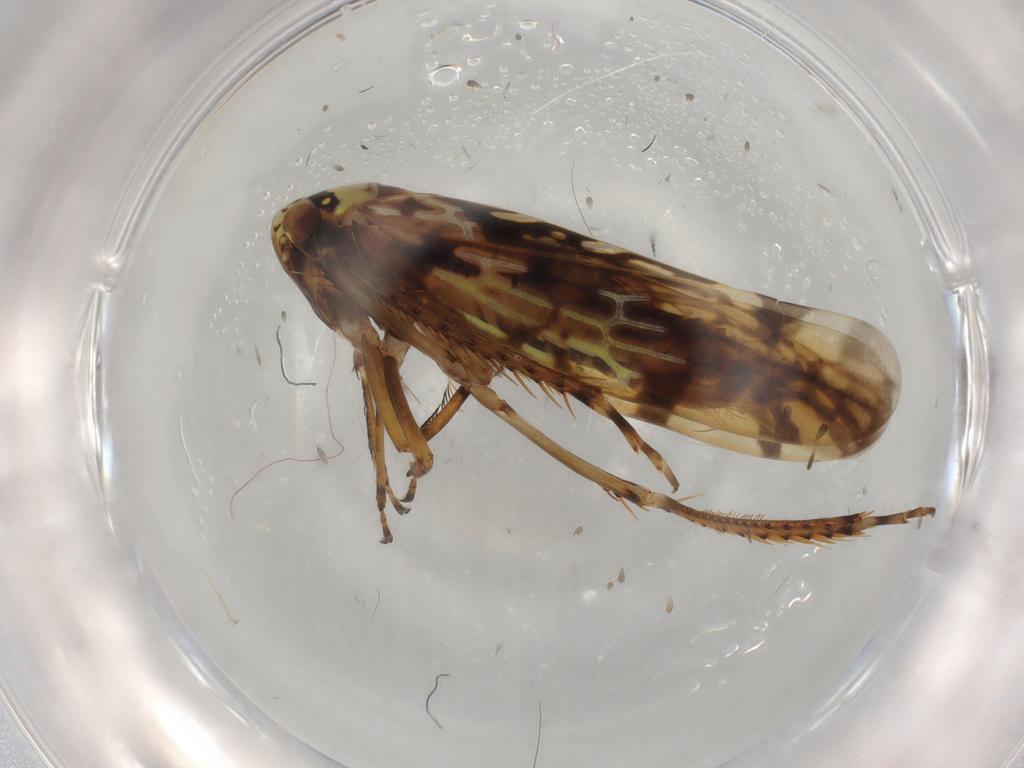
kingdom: Animalia
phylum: Arthropoda
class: Insecta
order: Hemiptera
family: Cicadellidae
